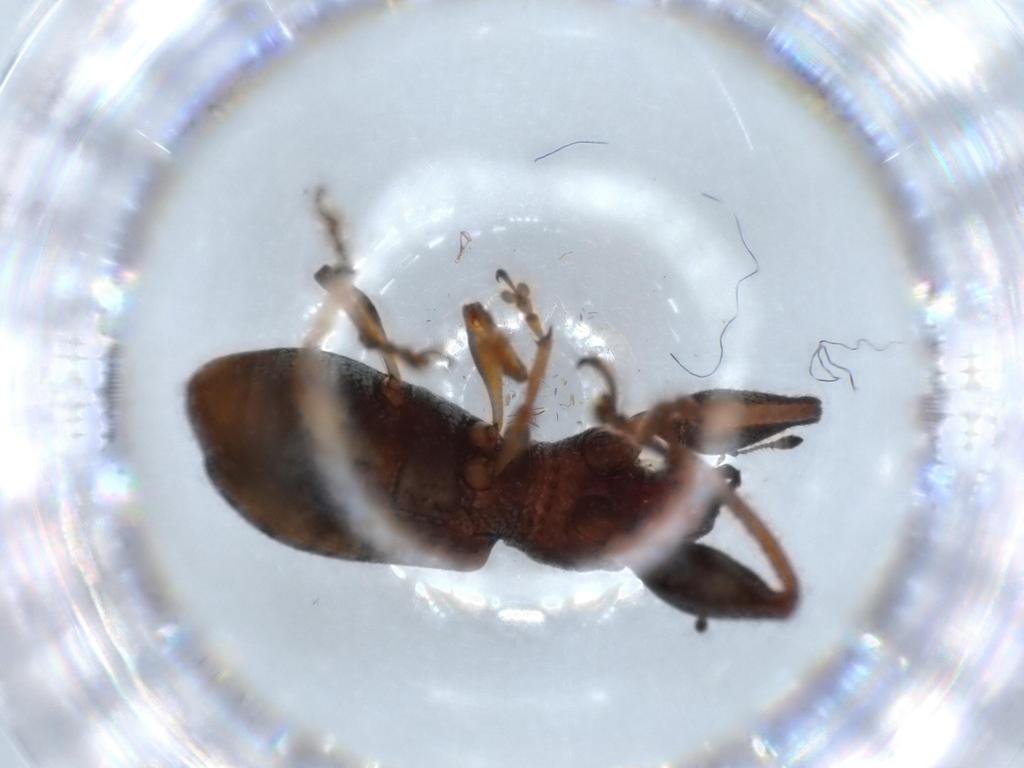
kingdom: Animalia
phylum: Arthropoda
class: Insecta
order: Coleoptera
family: Curculionidae
